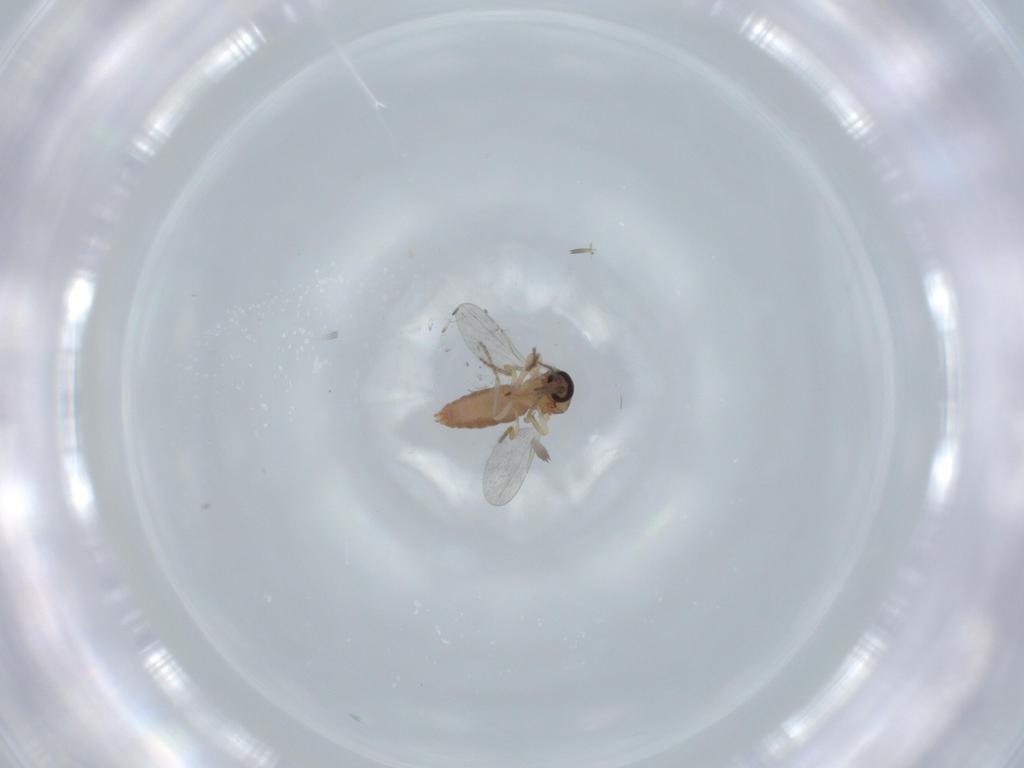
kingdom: Animalia
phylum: Arthropoda
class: Insecta
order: Diptera
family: Ceratopogonidae
